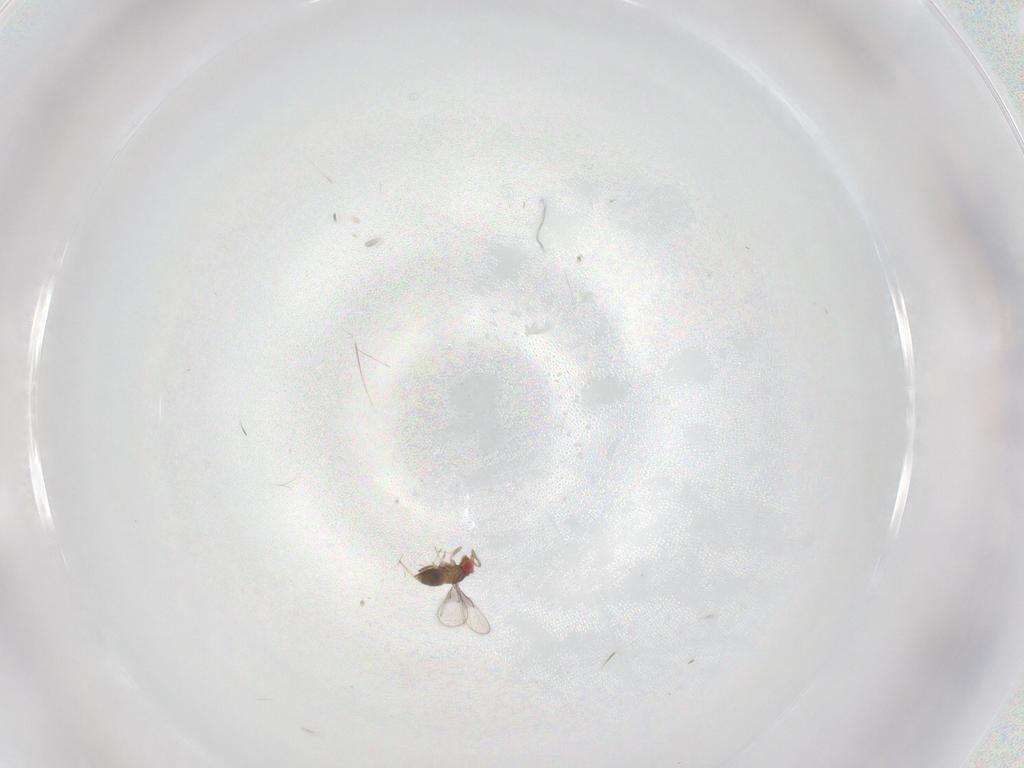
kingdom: Animalia
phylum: Arthropoda
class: Insecta
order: Hymenoptera
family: Trichogrammatidae
